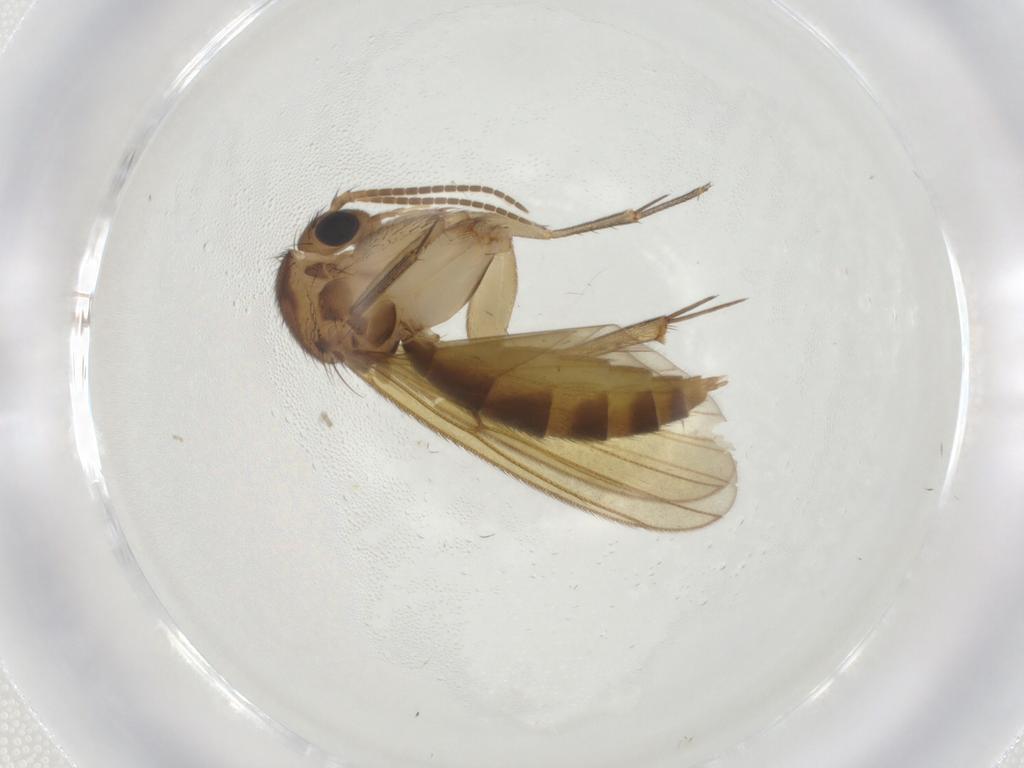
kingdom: Animalia
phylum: Arthropoda
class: Insecta
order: Diptera
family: Mycetophilidae
